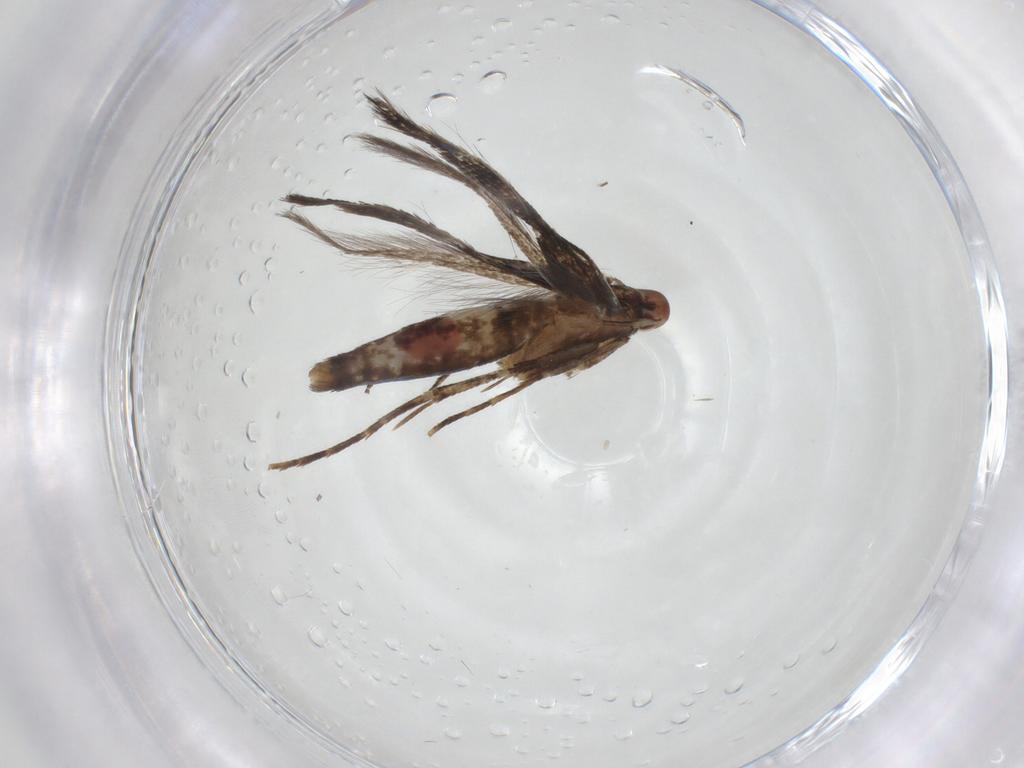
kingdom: Animalia
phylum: Arthropoda
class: Insecta
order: Lepidoptera
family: Cosmopterigidae
